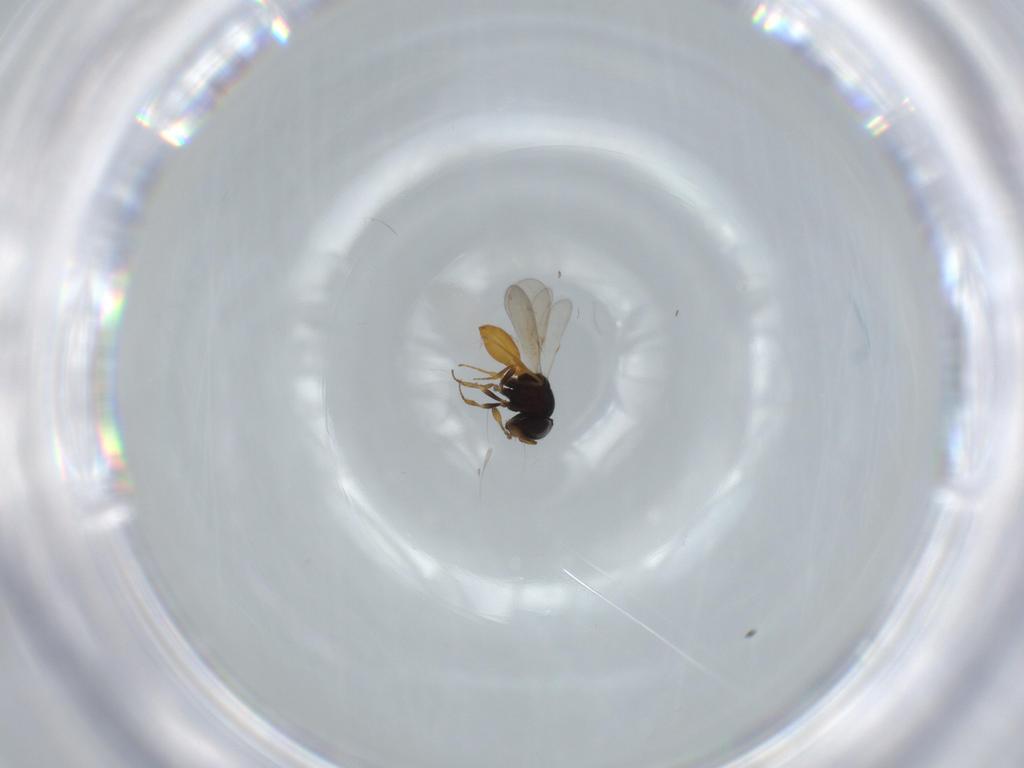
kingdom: Animalia
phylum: Arthropoda
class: Insecta
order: Hymenoptera
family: Scelionidae
